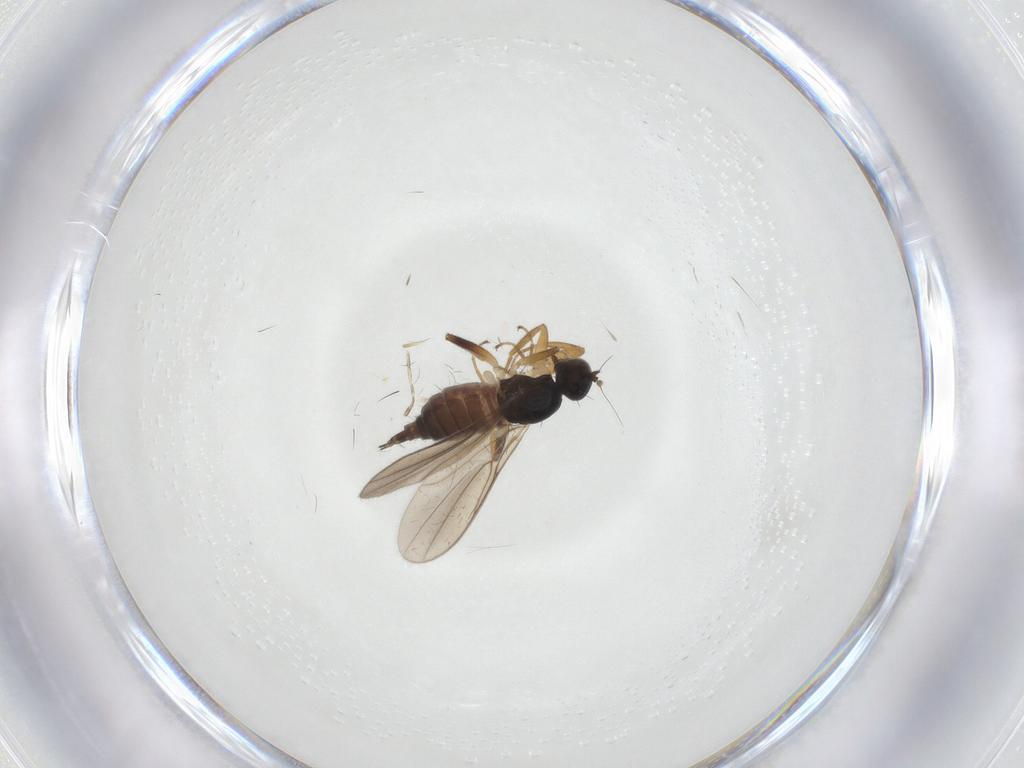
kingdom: Animalia
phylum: Arthropoda
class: Insecta
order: Diptera
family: Hybotidae
